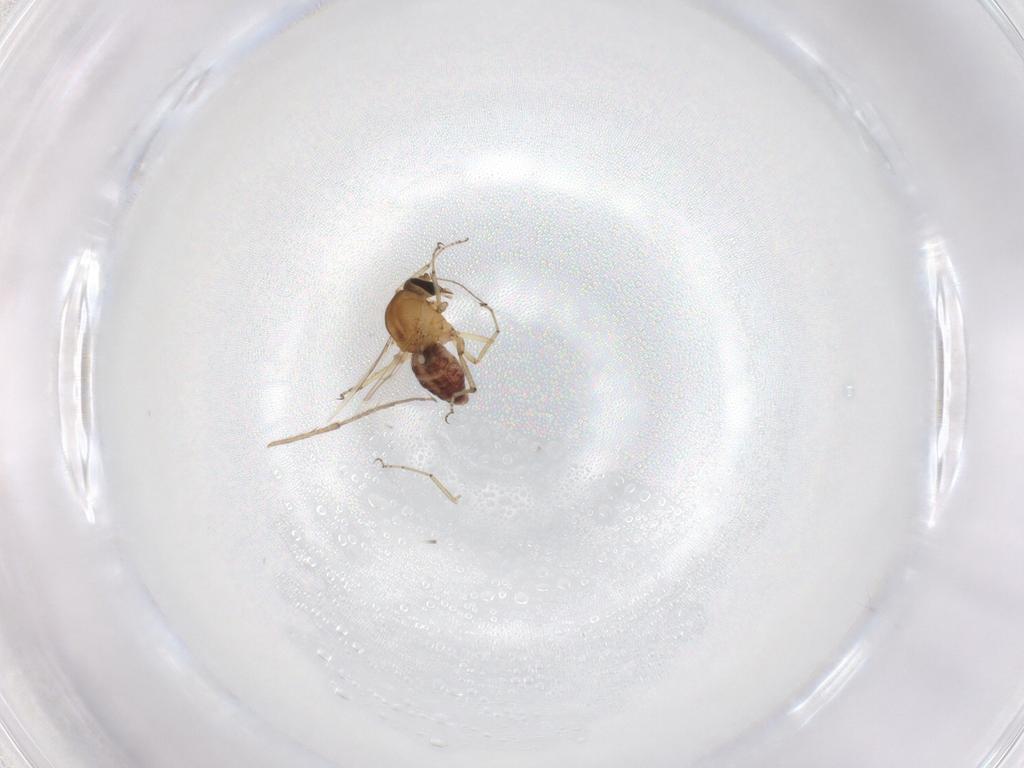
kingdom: Animalia
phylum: Arthropoda
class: Insecta
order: Diptera
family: Ceratopogonidae
